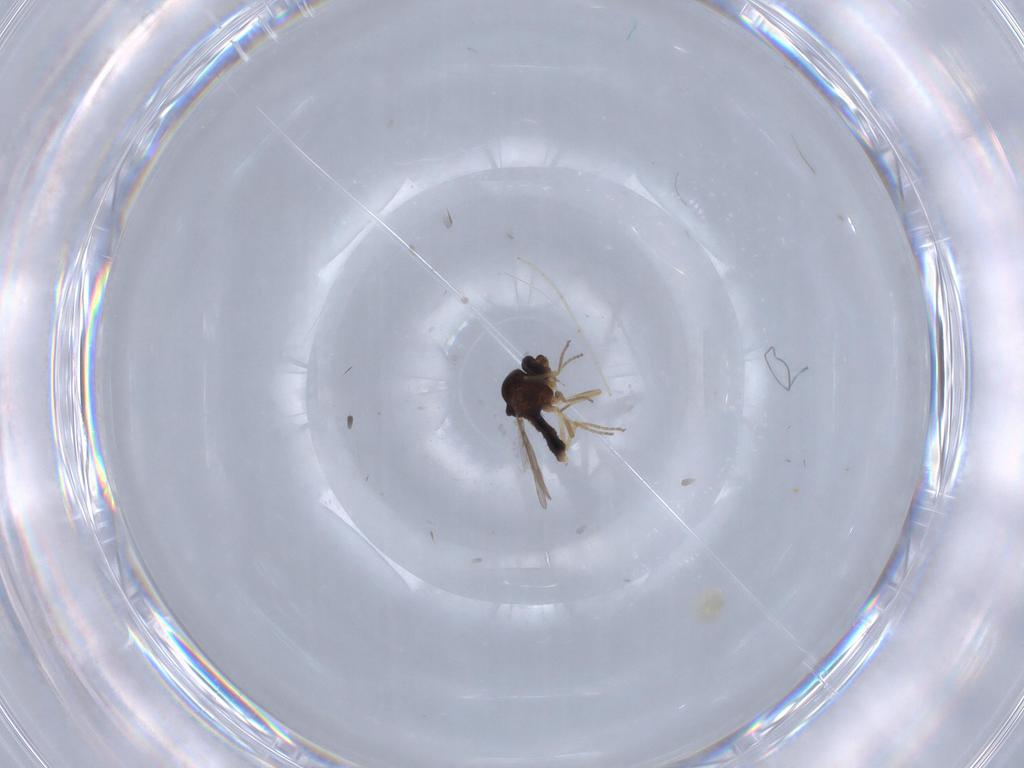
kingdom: Animalia
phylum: Arthropoda
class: Insecta
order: Diptera
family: Ceratopogonidae
